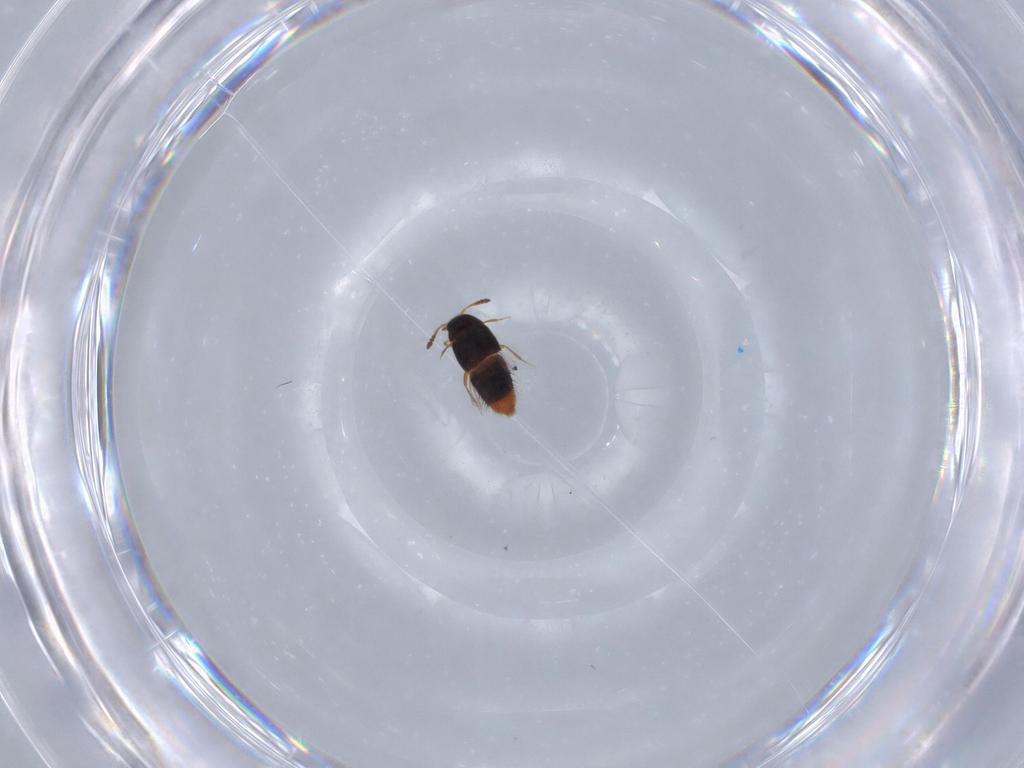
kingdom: Animalia
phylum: Arthropoda
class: Insecta
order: Coleoptera
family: Staphylinidae
